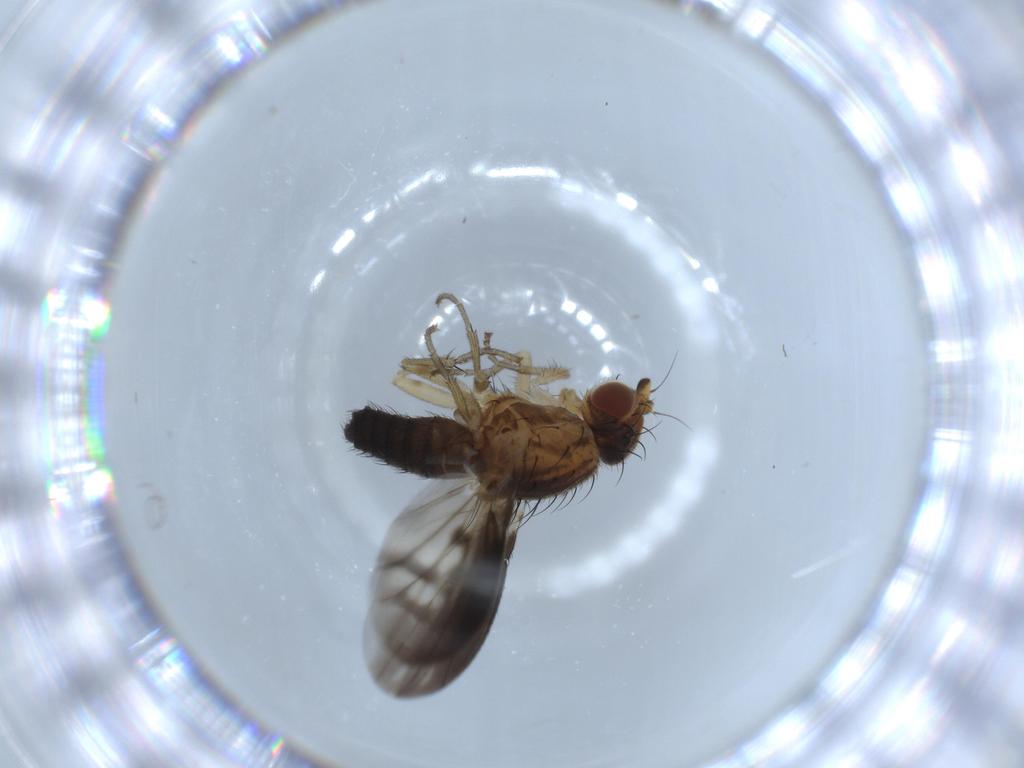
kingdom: Animalia
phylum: Arthropoda
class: Insecta
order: Diptera
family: Heleomyzidae
